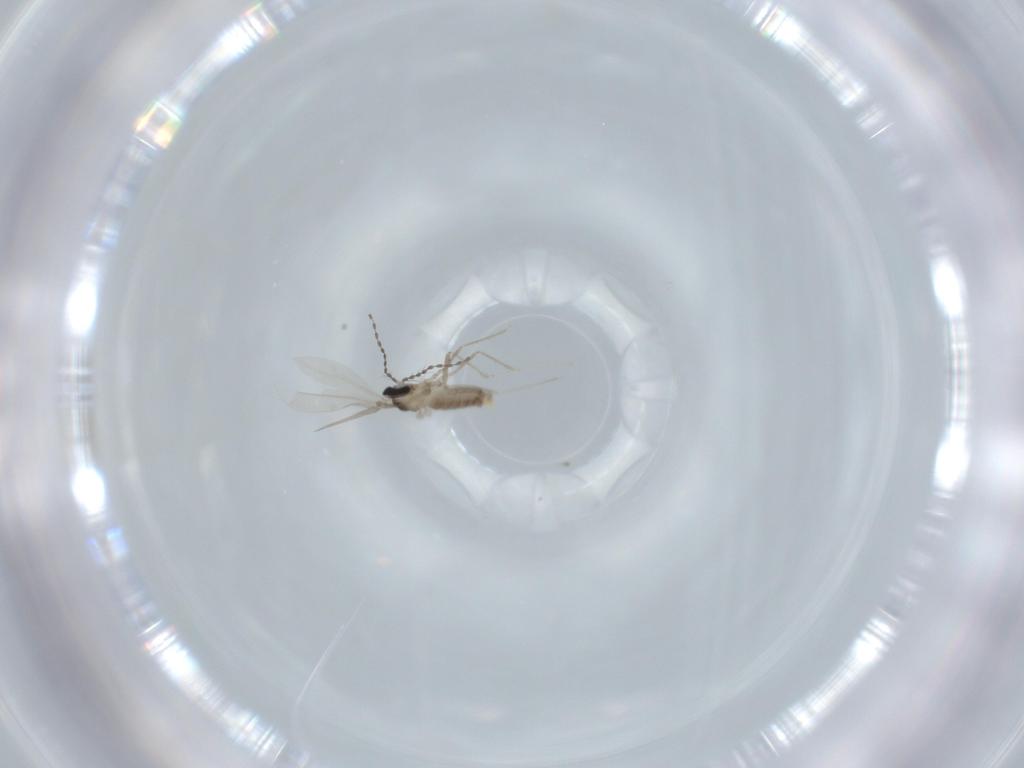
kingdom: Animalia
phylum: Arthropoda
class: Insecta
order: Diptera
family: Cecidomyiidae
